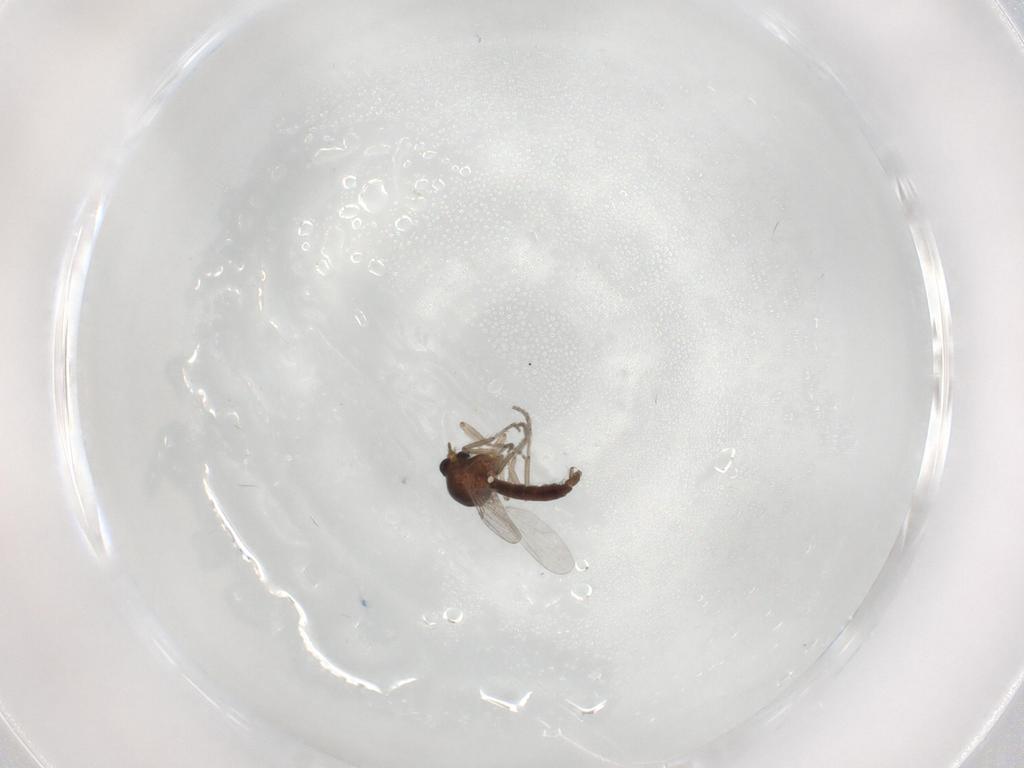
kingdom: Animalia
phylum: Arthropoda
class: Insecta
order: Diptera
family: Ceratopogonidae
